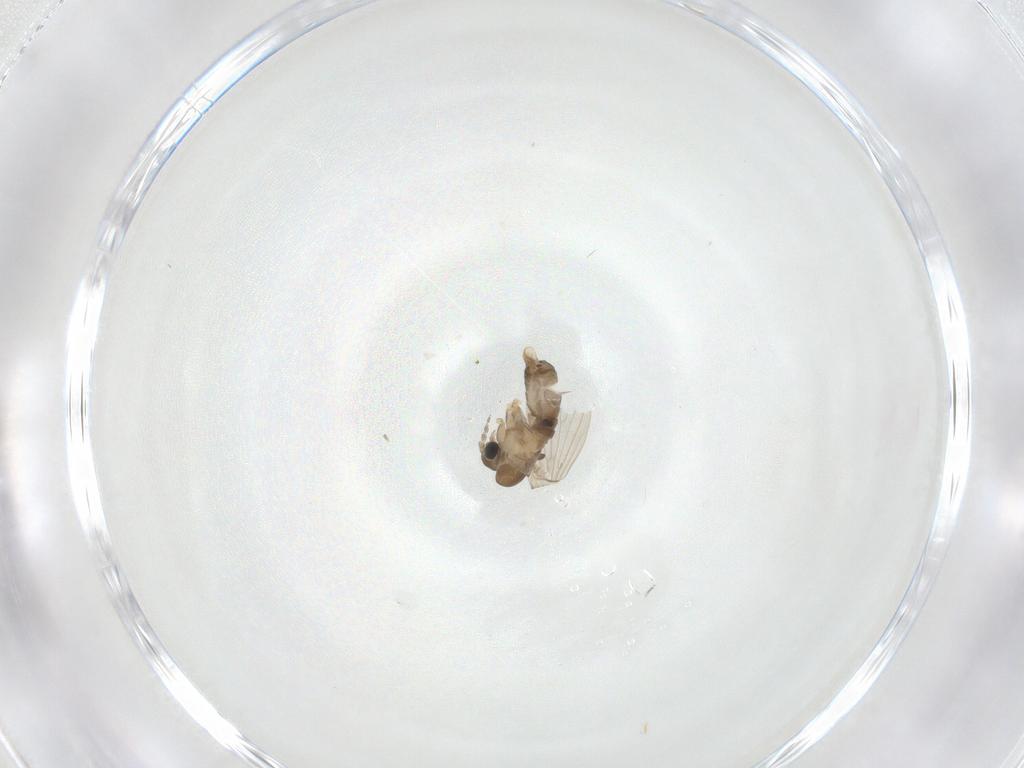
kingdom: Animalia
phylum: Arthropoda
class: Insecta
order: Diptera
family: Psychodidae
